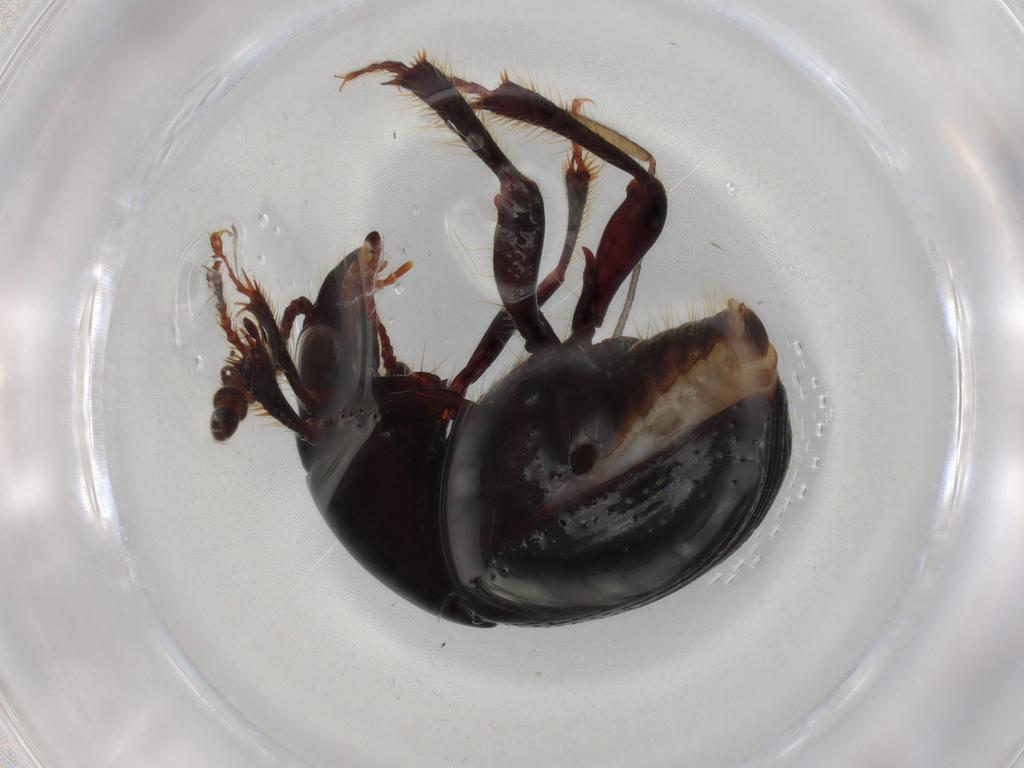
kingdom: Animalia
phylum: Arthropoda
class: Insecta
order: Coleoptera
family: Leiodidae
